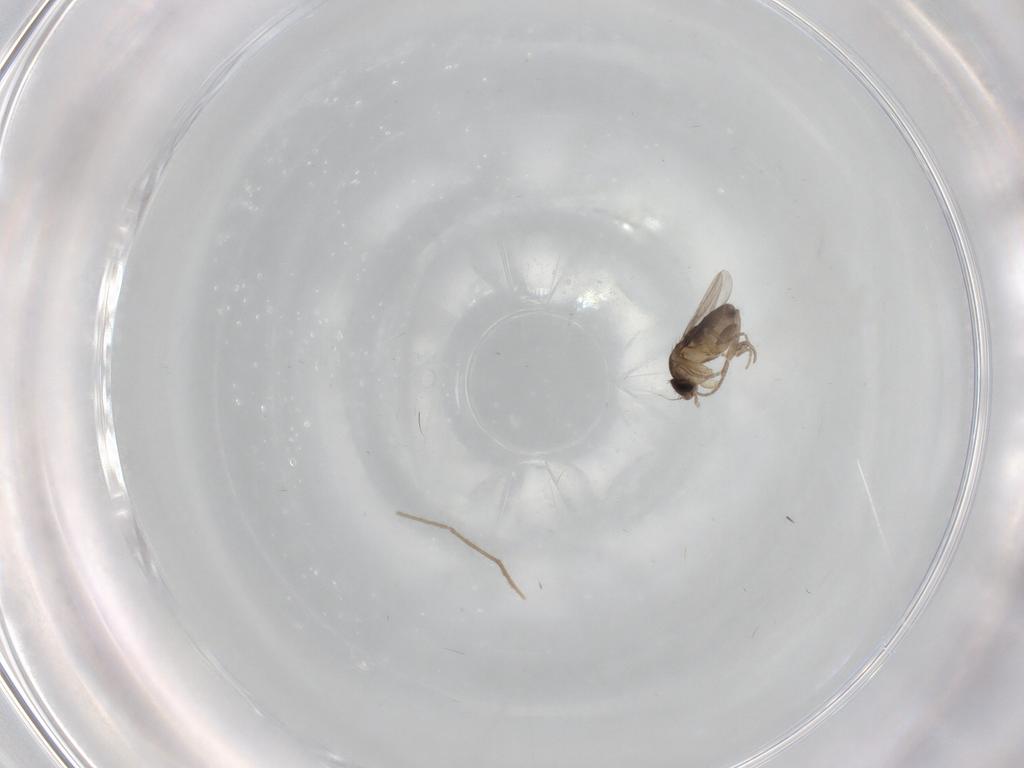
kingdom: Animalia
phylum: Arthropoda
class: Insecta
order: Diptera
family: Phoridae
